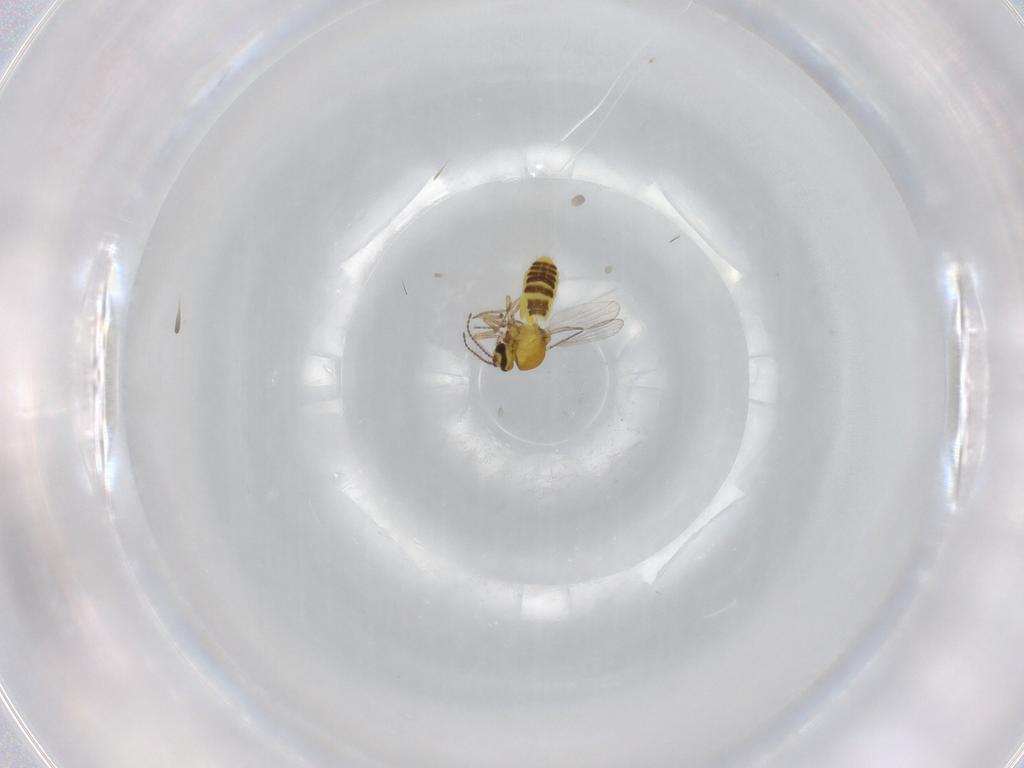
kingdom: Animalia
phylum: Arthropoda
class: Insecta
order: Diptera
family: Ceratopogonidae
